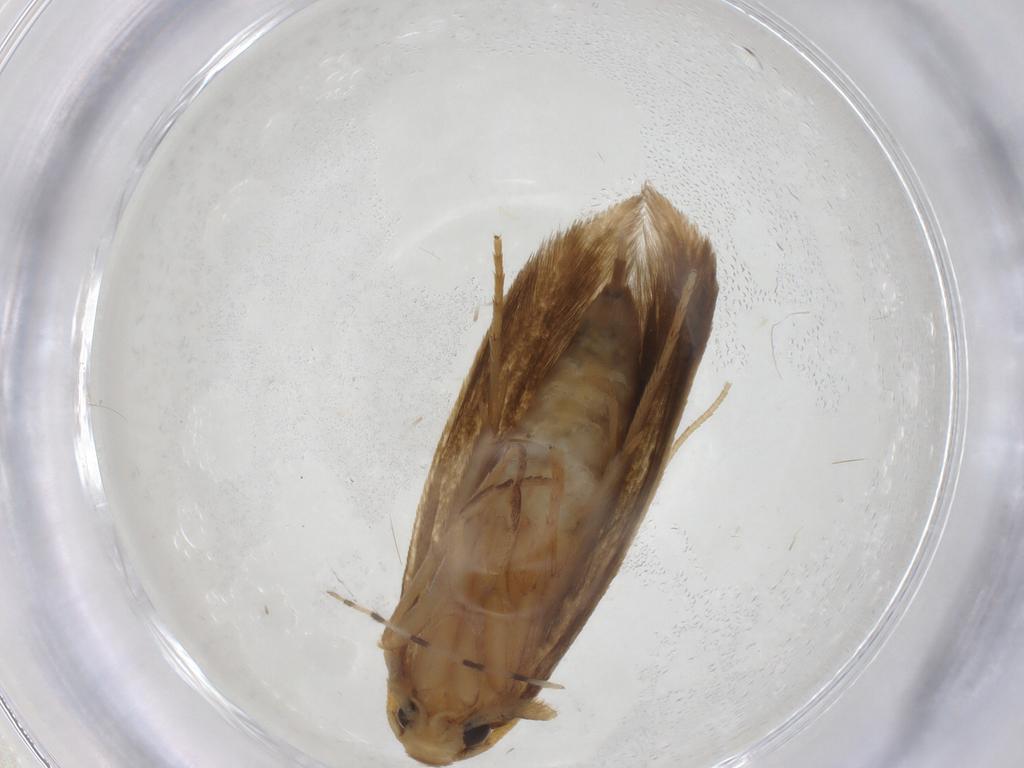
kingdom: Animalia
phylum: Arthropoda
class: Insecta
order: Lepidoptera
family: Tineidae
